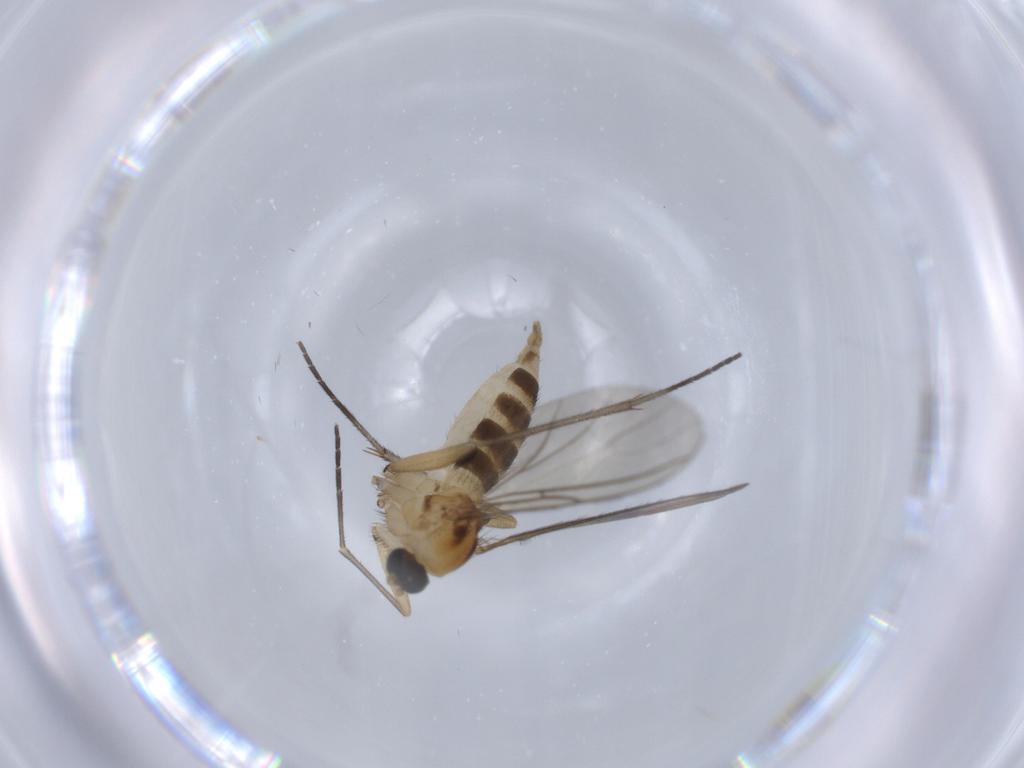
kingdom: Animalia
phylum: Arthropoda
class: Insecta
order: Diptera
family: Sciaridae
